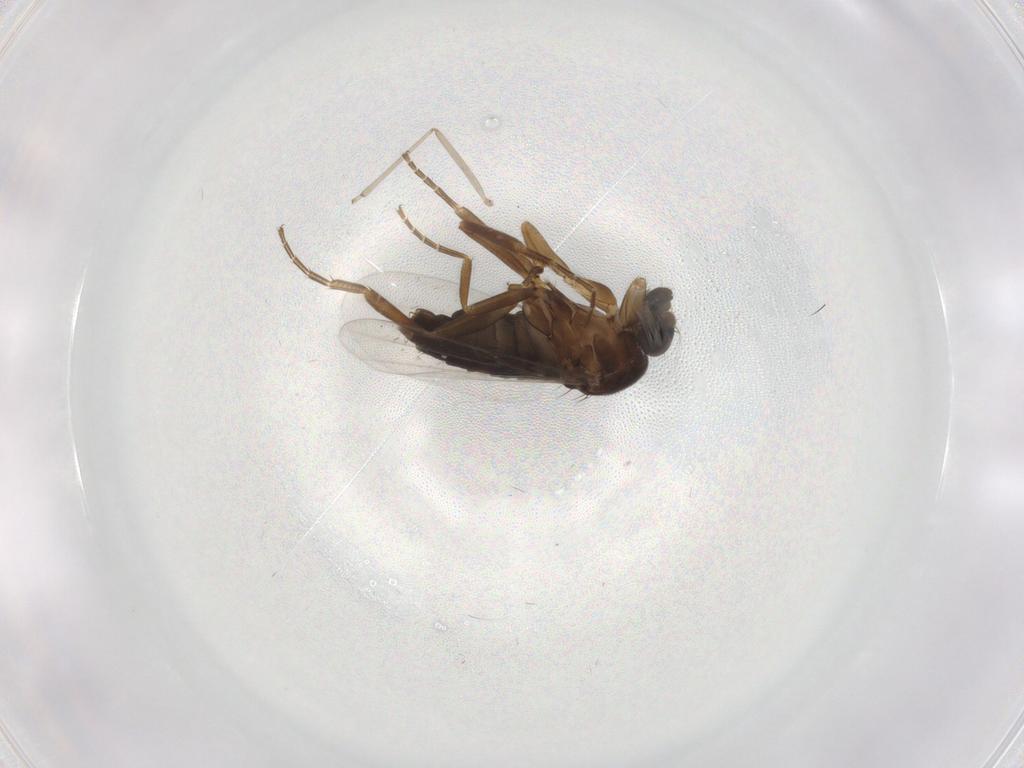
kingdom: Animalia
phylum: Arthropoda
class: Insecta
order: Diptera
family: Phoridae
